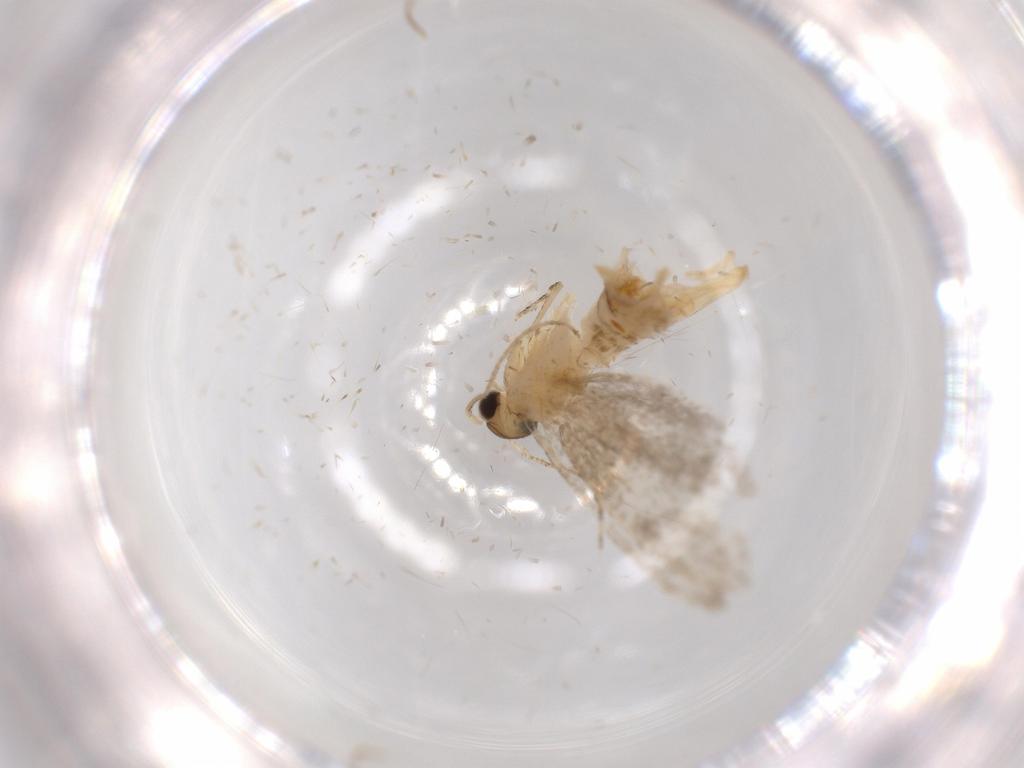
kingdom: Animalia
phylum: Arthropoda
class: Insecta
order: Lepidoptera
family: Tineidae
